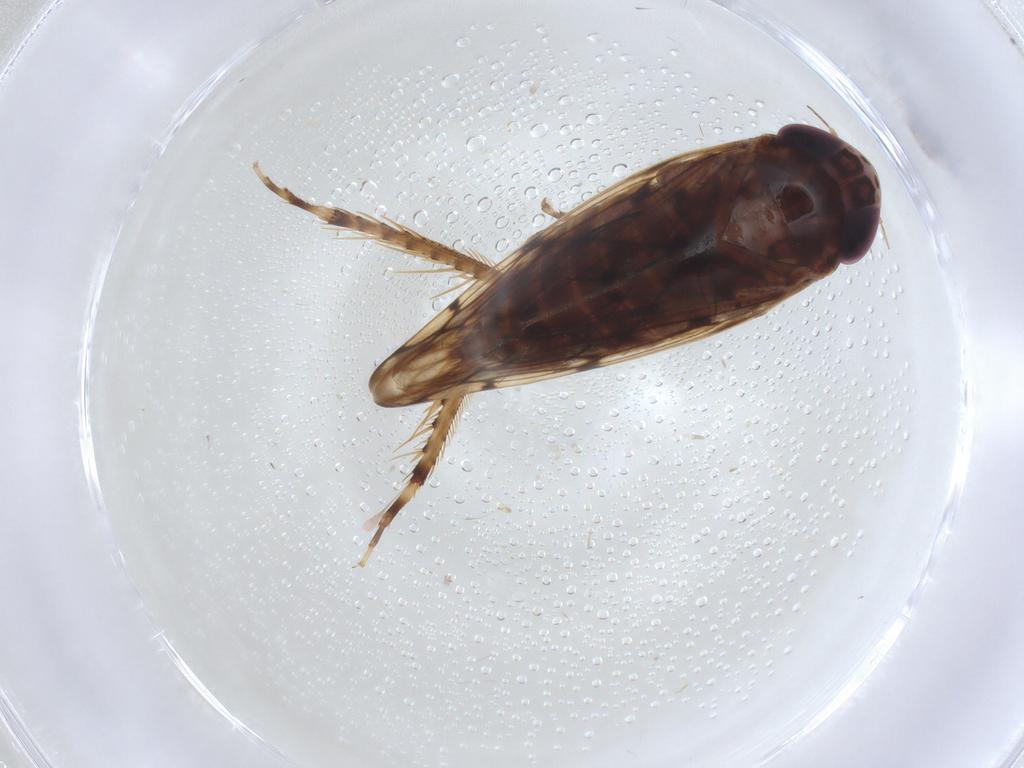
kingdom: Animalia
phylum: Arthropoda
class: Insecta
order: Hemiptera
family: Cicadellidae
